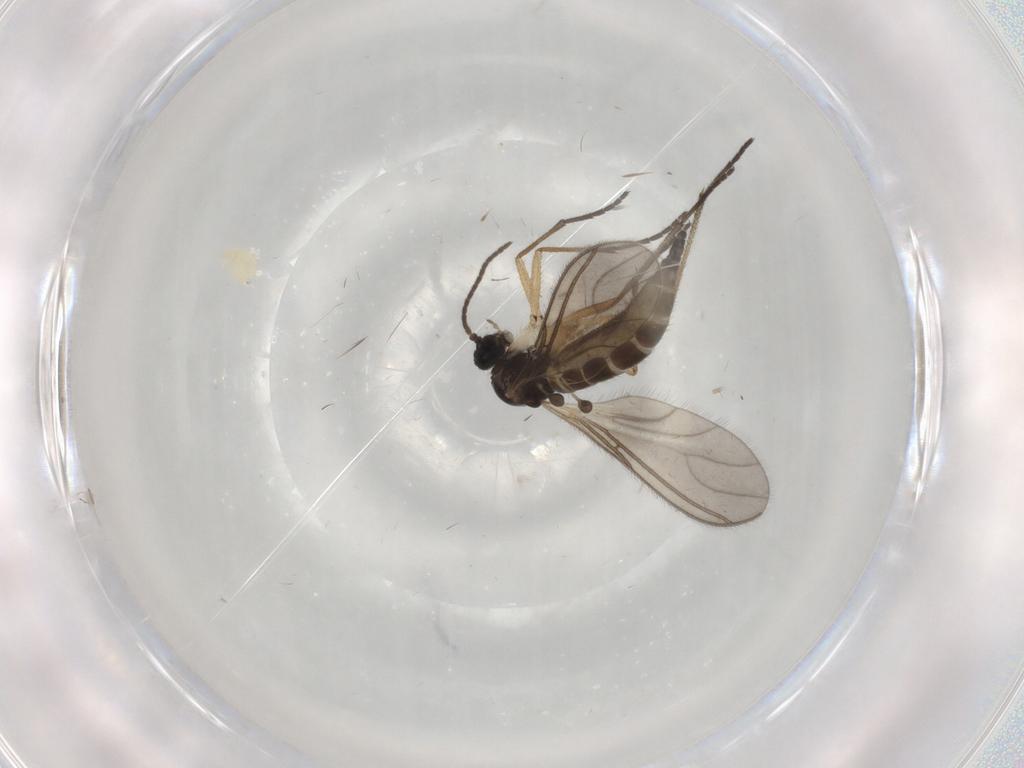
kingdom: Animalia
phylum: Arthropoda
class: Insecta
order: Diptera
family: Sciaridae
